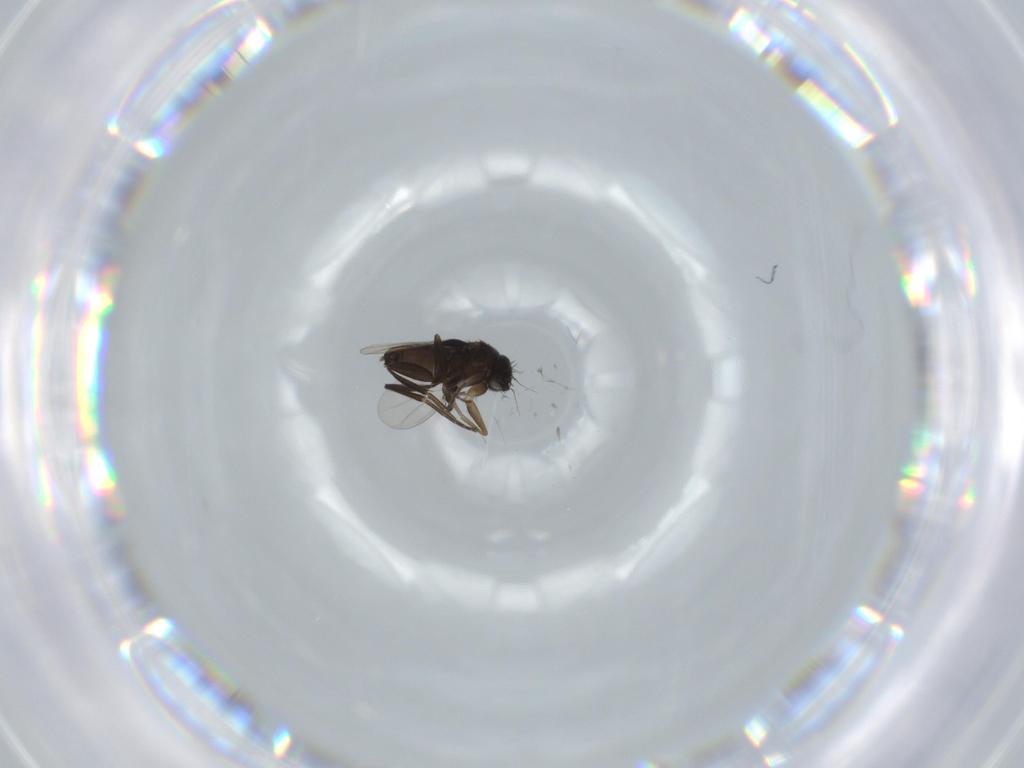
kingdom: Animalia
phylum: Arthropoda
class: Insecta
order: Diptera
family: Phoridae
